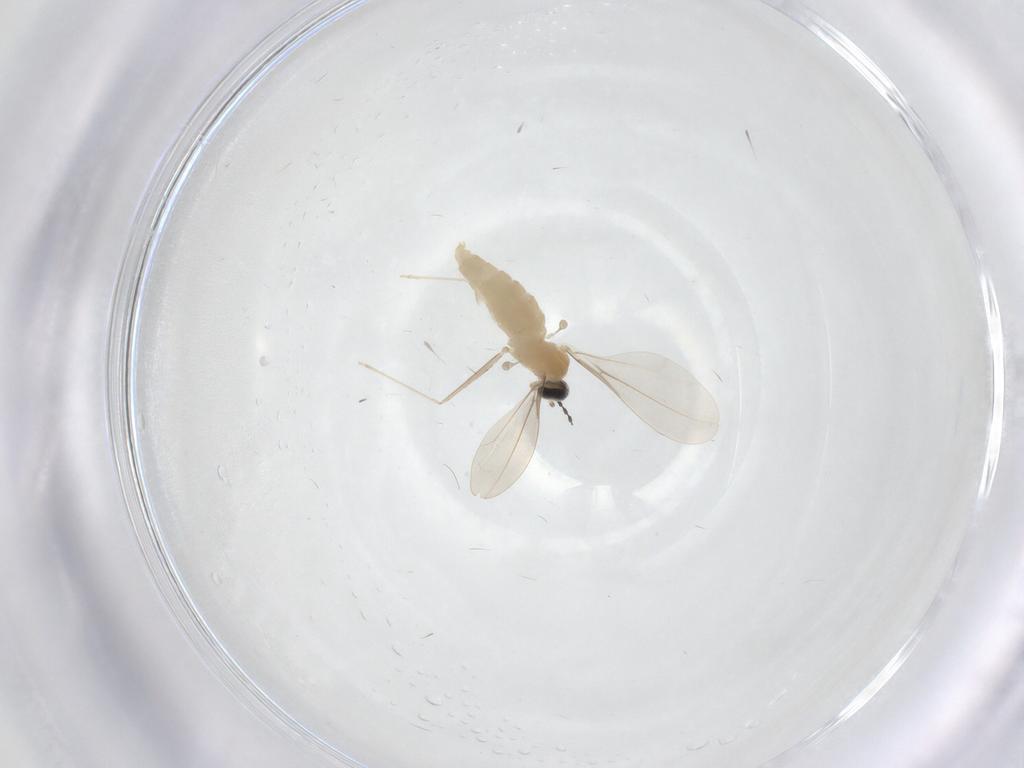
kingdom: Animalia
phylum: Arthropoda
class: Insecta
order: Diptera
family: Cecidomyiidae
